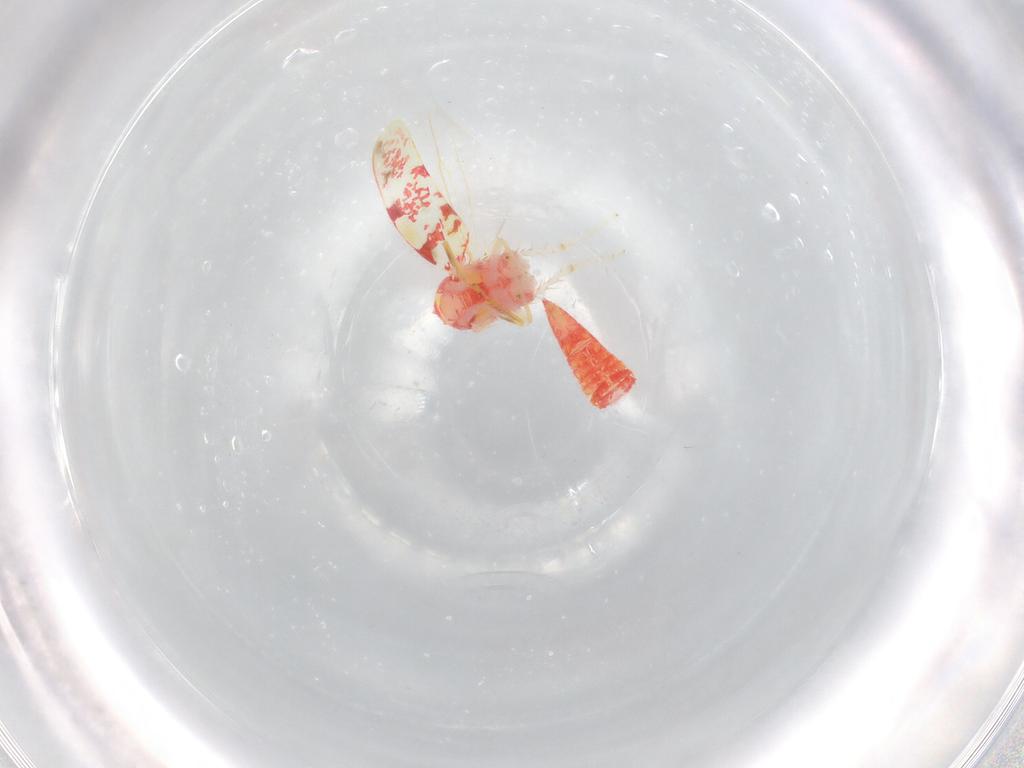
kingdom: Animalia
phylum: Arthropoda
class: Insecta
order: Hemiptera
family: Cicadellidae
